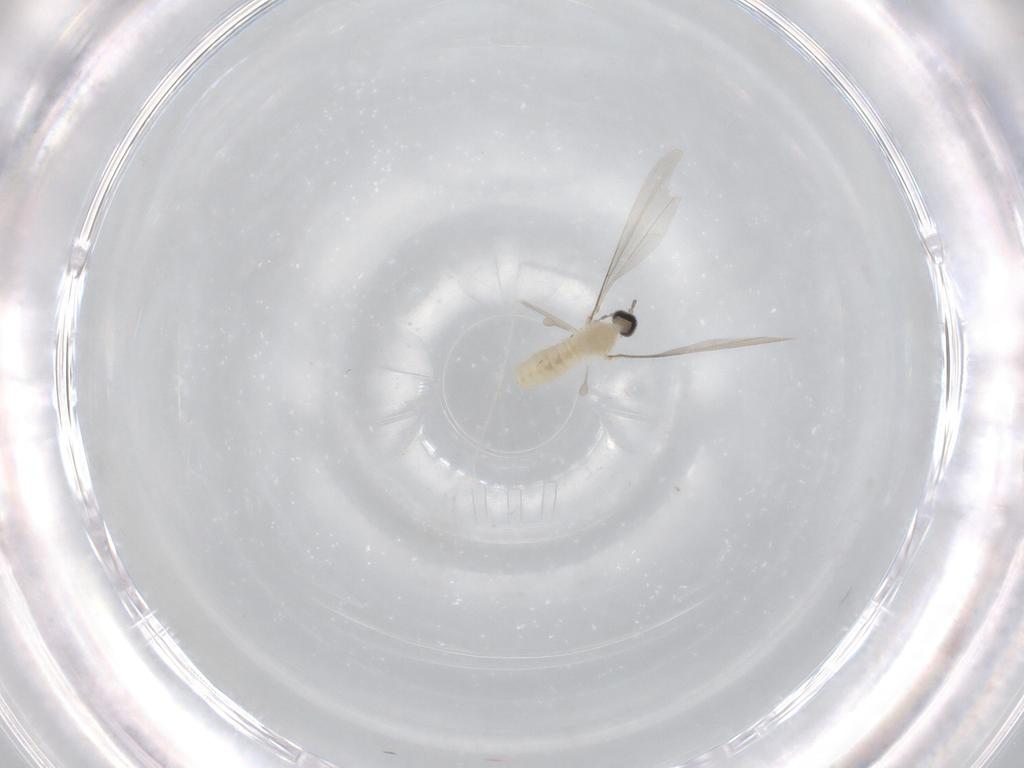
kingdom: Animalia
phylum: Arthropoda
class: Insecta
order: Diptera
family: Cecidomyiidae
